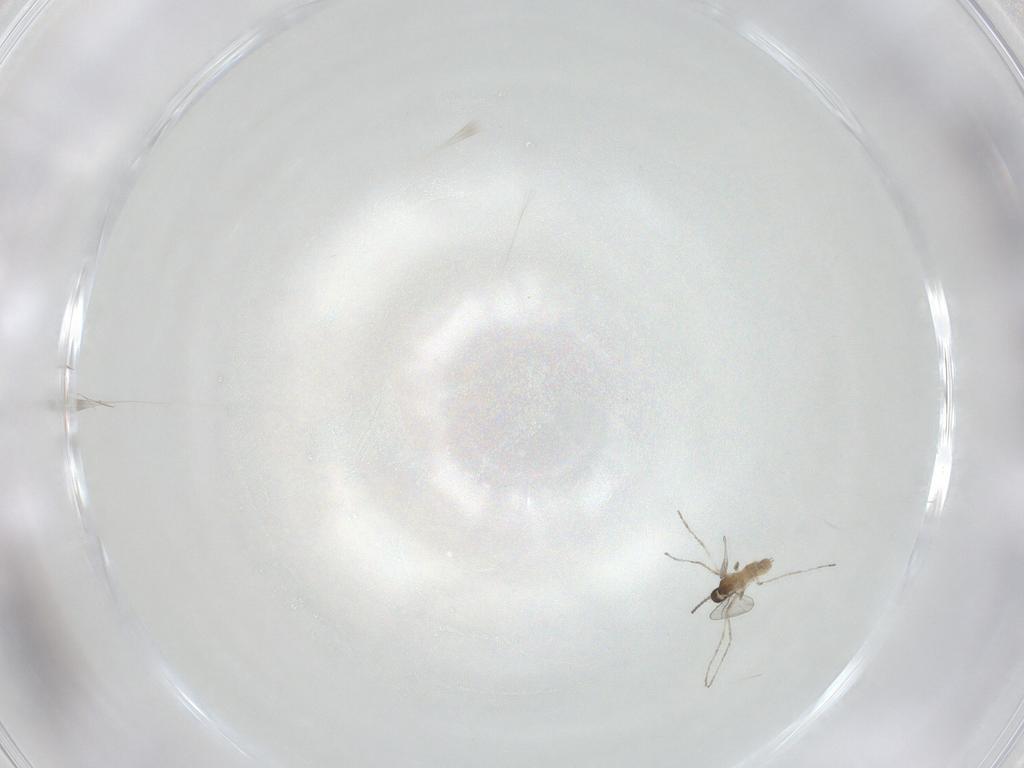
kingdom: Animalia
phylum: Arthropoda
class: Insecta
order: Diptera
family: Cecidomyiidae
